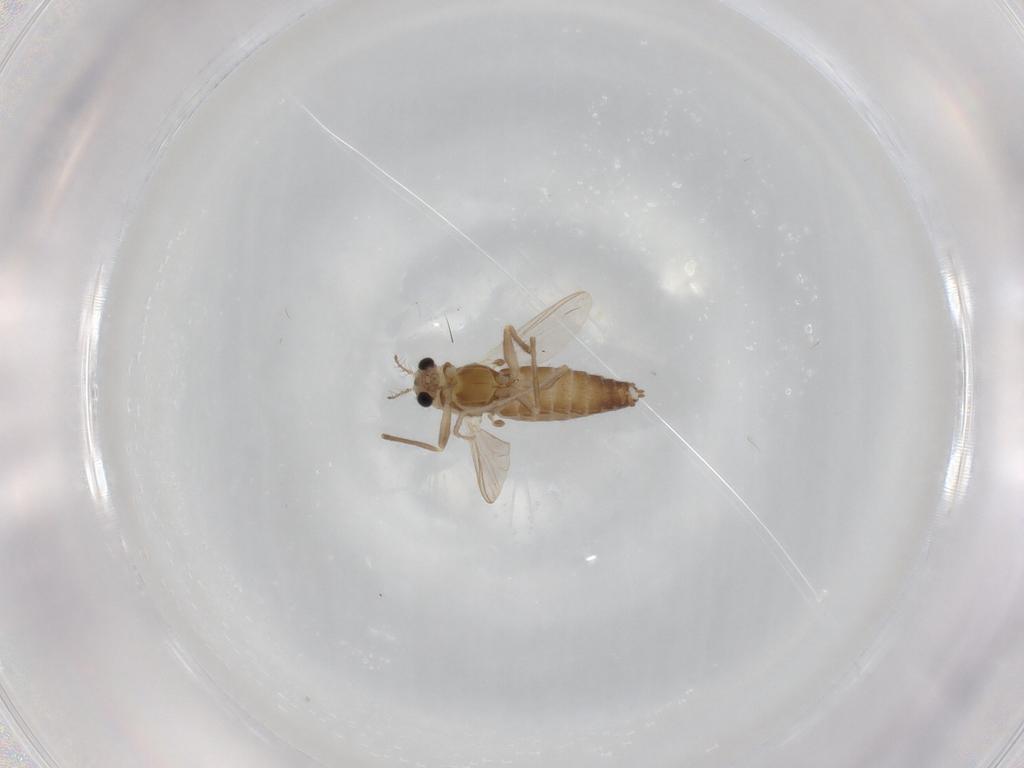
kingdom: Animalia
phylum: Arthropoda
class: Insecta
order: Diptera
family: Chironomidae
